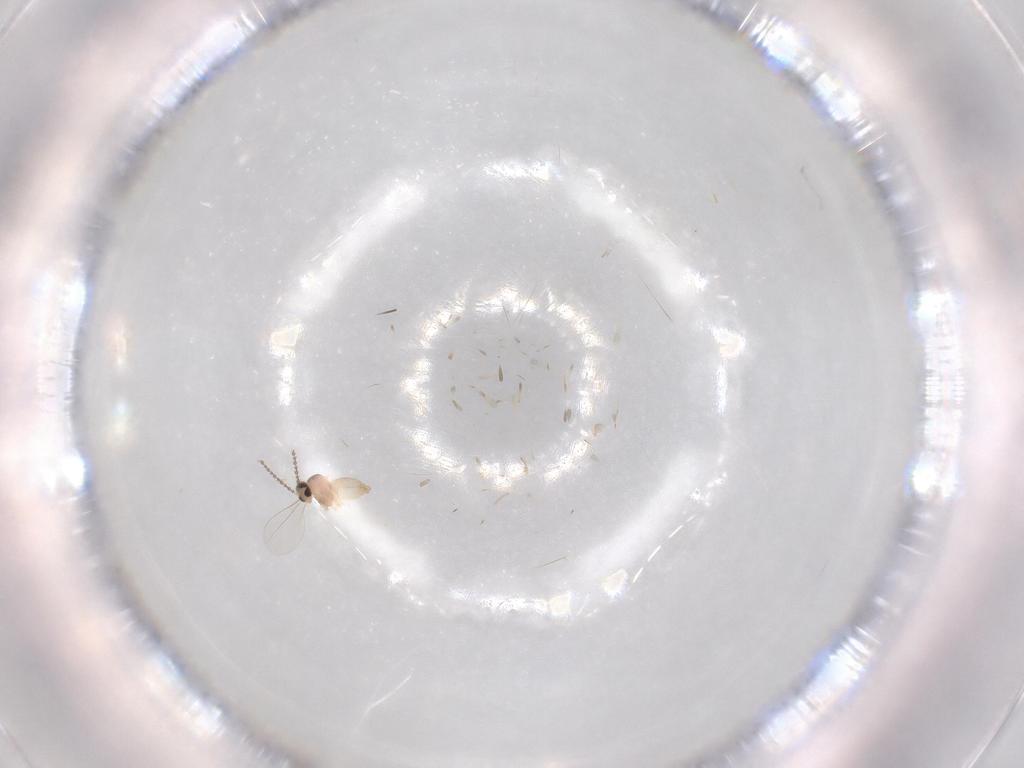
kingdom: Animalia
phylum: Arthropoda
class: Insecta
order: Diptera
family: Cecidomyiidae
